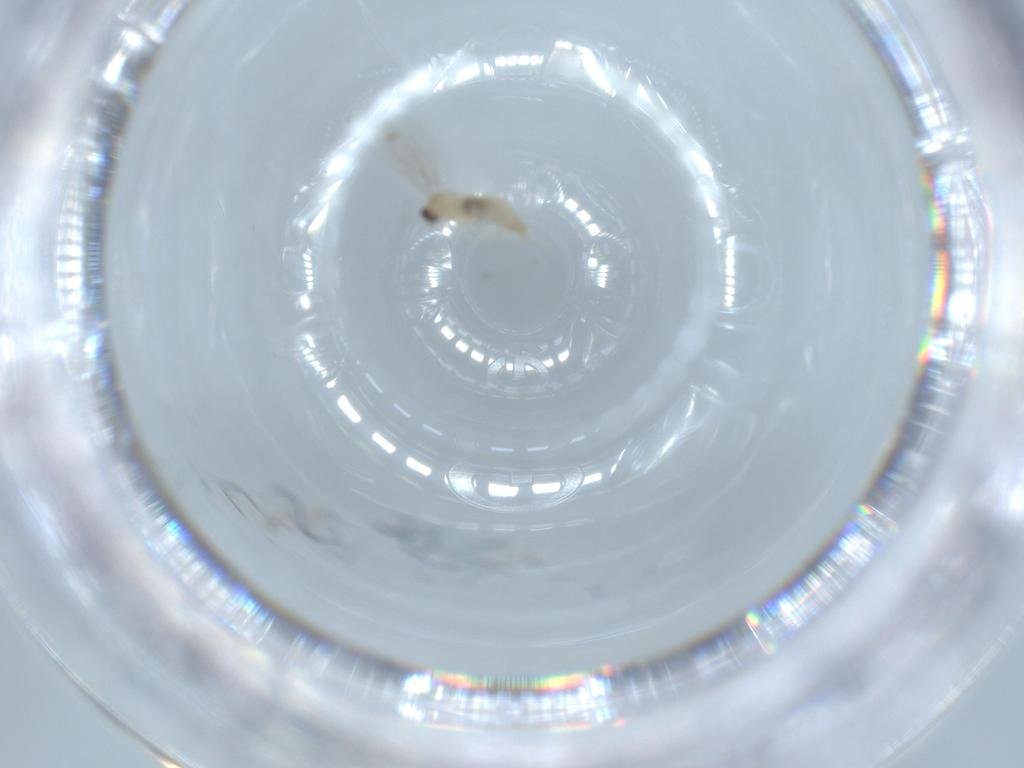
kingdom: Animalia
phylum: Arthropoda
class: Insecta
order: Diptera
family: Cecidomyiidae
